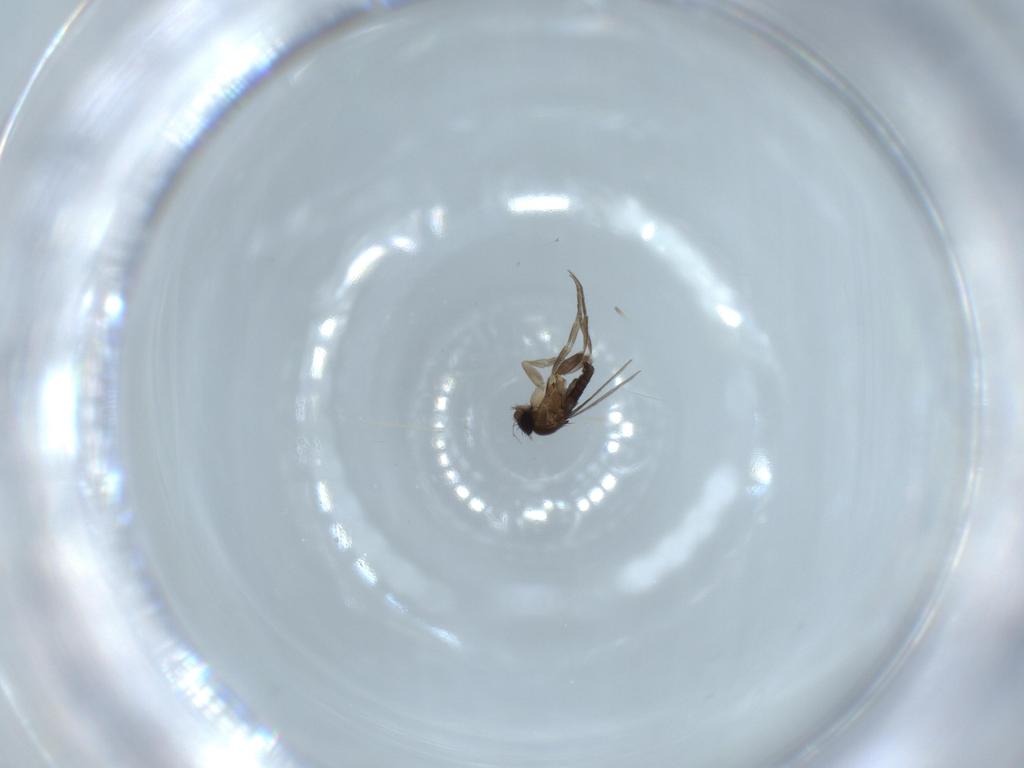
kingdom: Animalia
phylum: Arthropoda
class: Insecta
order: Diptera
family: Phoridae
